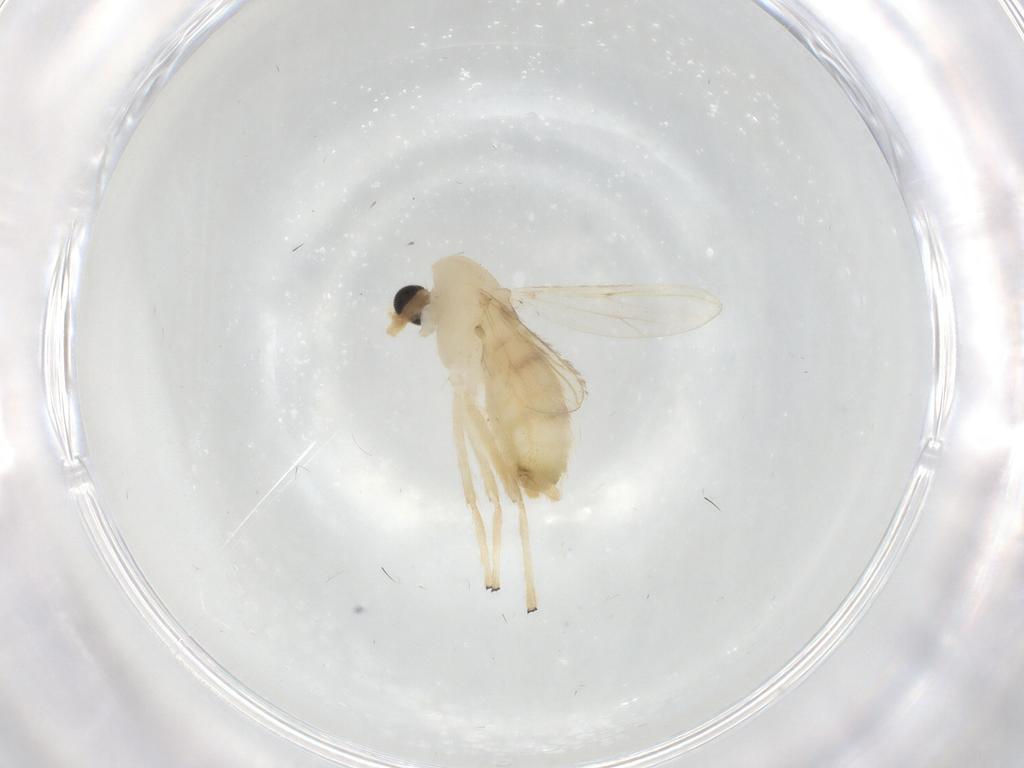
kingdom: Animalia
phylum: Arthropoda
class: Insecta
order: Diptera
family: Chironomidae
